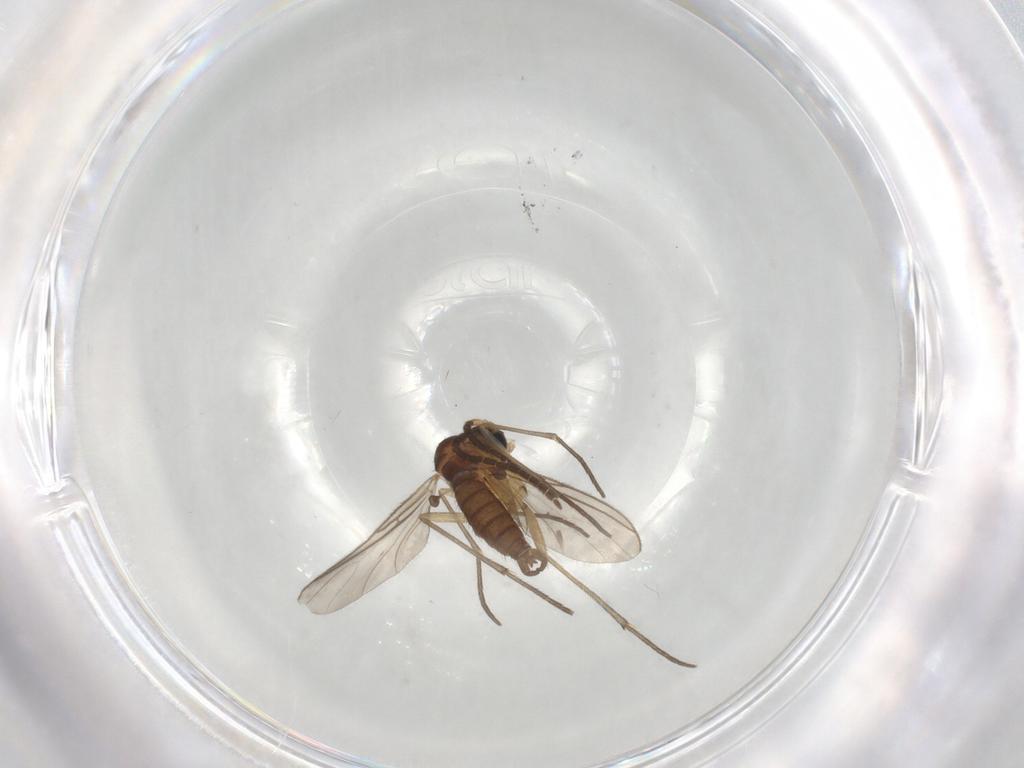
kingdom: Animalia
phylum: Arthropoda
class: Insecta
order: Diptera
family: Sciaridae
